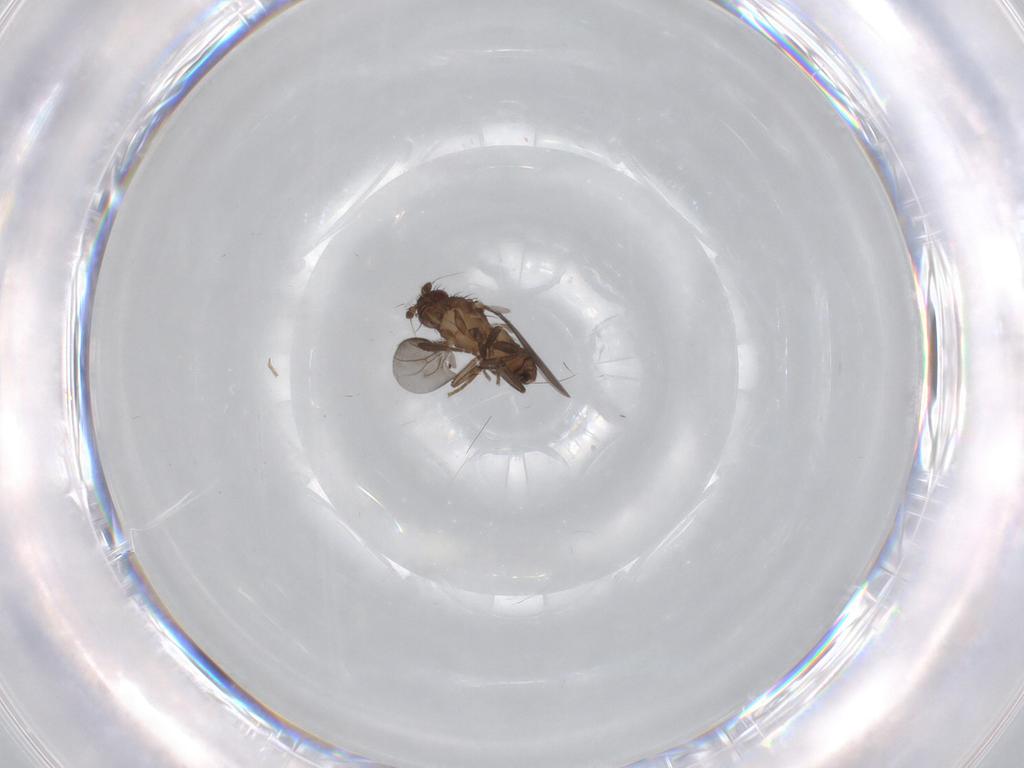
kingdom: Animalia
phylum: Arthropoda
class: Insecta
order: Diptera
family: Sphaeroceridae
